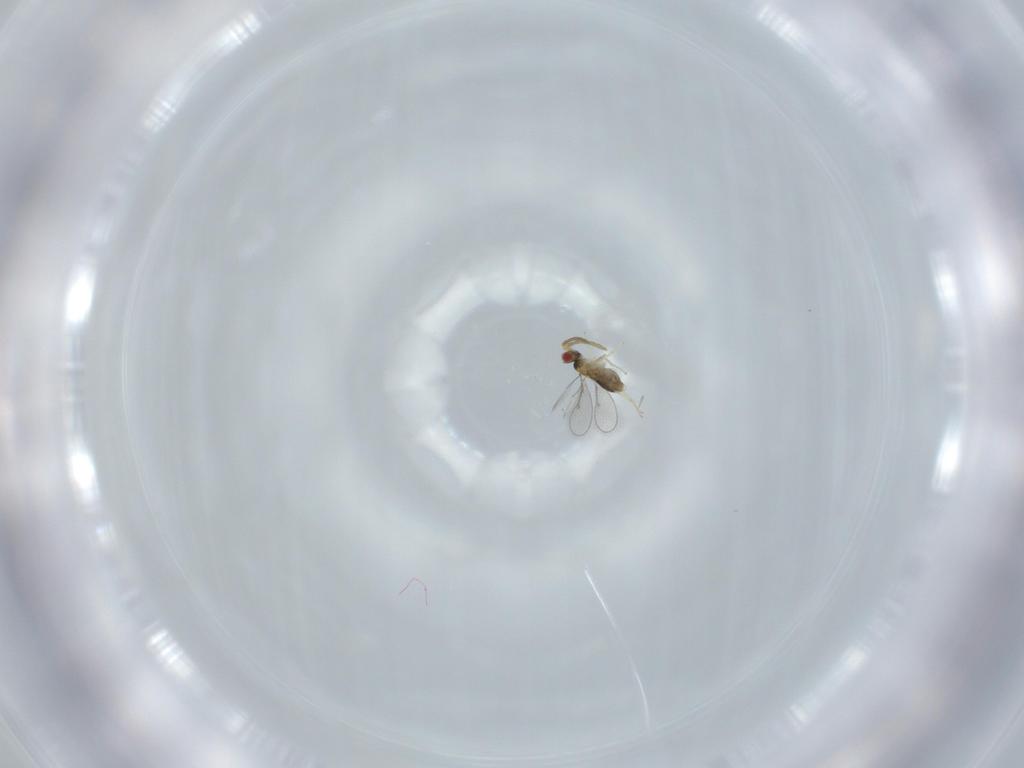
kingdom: Animalia
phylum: Arthropoda
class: Insecta
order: Hymenoptera
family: Aphelinidae
